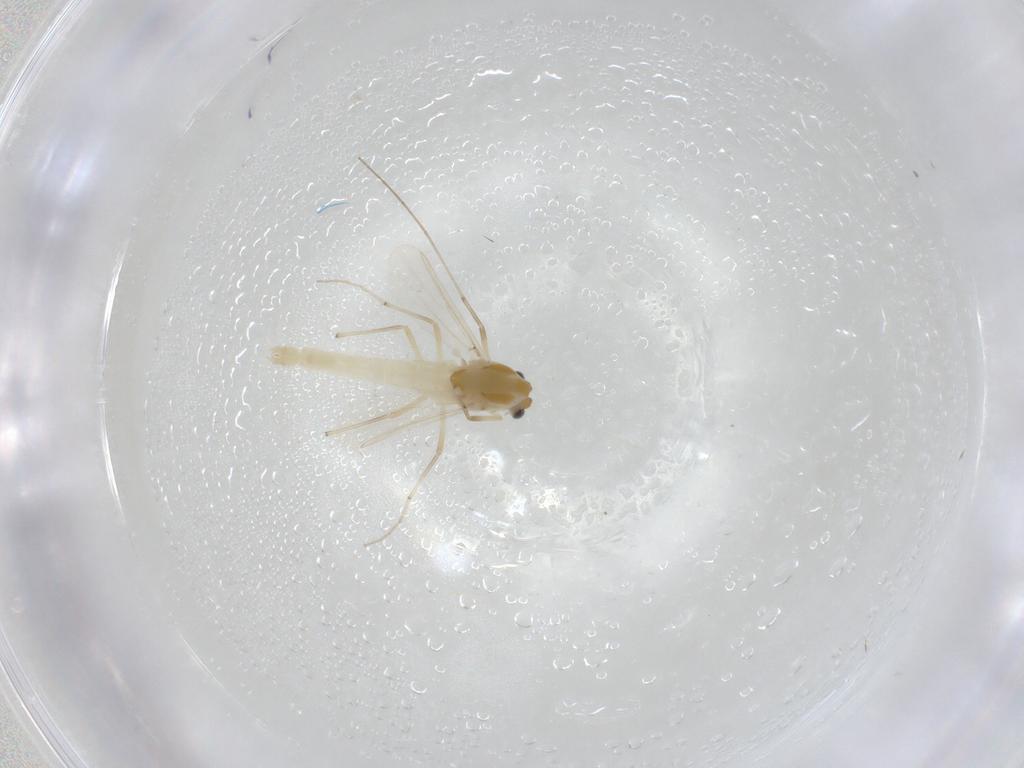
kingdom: Animalia
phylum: Arthropoda
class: Insecta
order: Diptera
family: Chironomidae
